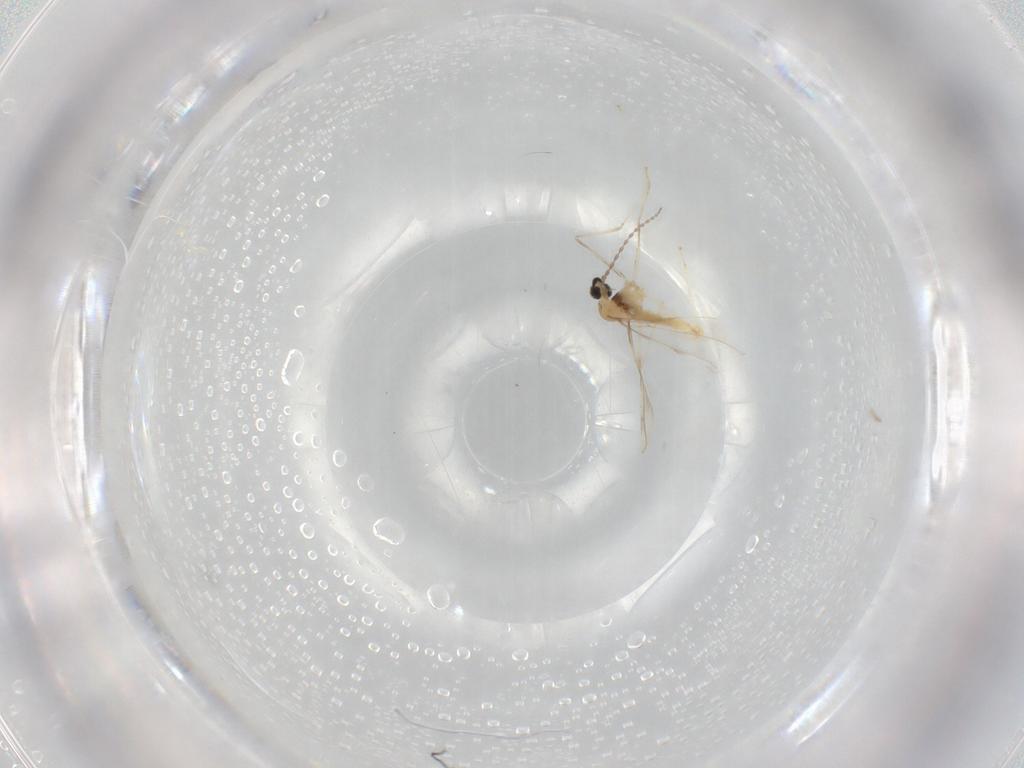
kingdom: Animalia
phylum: Arthropoda
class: Insecta
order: Diptera
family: Cecidomyiidae
